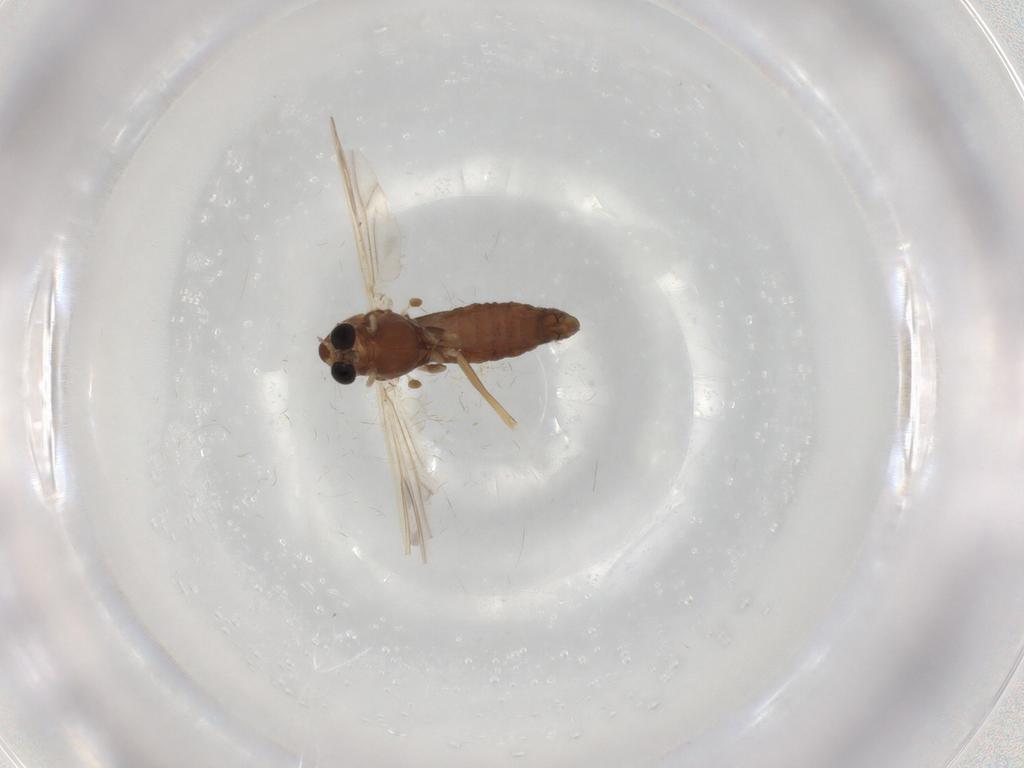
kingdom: Animalia
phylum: Arthropoda
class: Insecta
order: Diptera
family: Chironomidae
